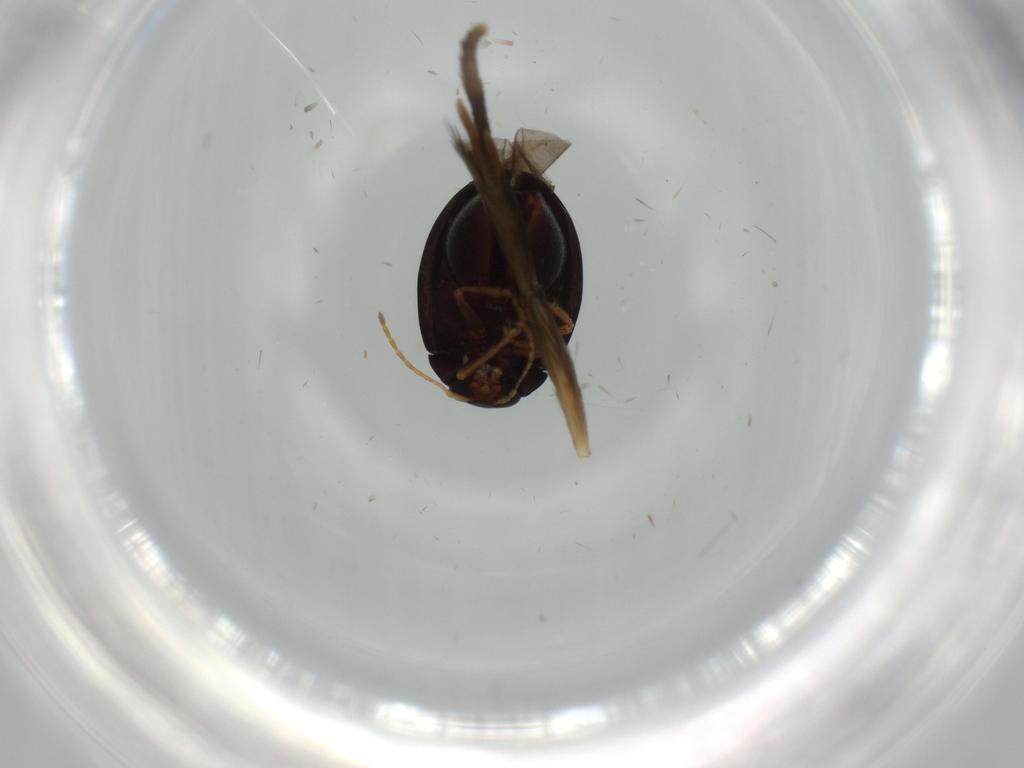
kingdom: Animalia
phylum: Arthropoda
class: Insecta
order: Coleoptera
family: Chrysomelidae
